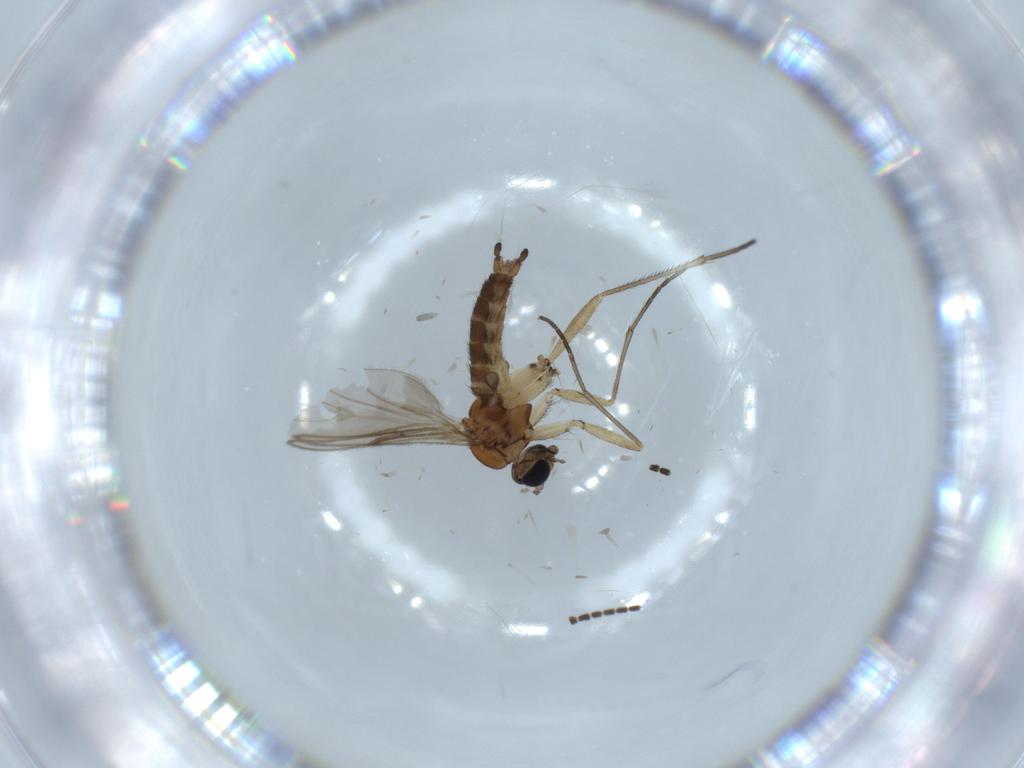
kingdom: Animalia
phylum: Arthropoda
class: Insecta
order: Diptera
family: Sciaridae
